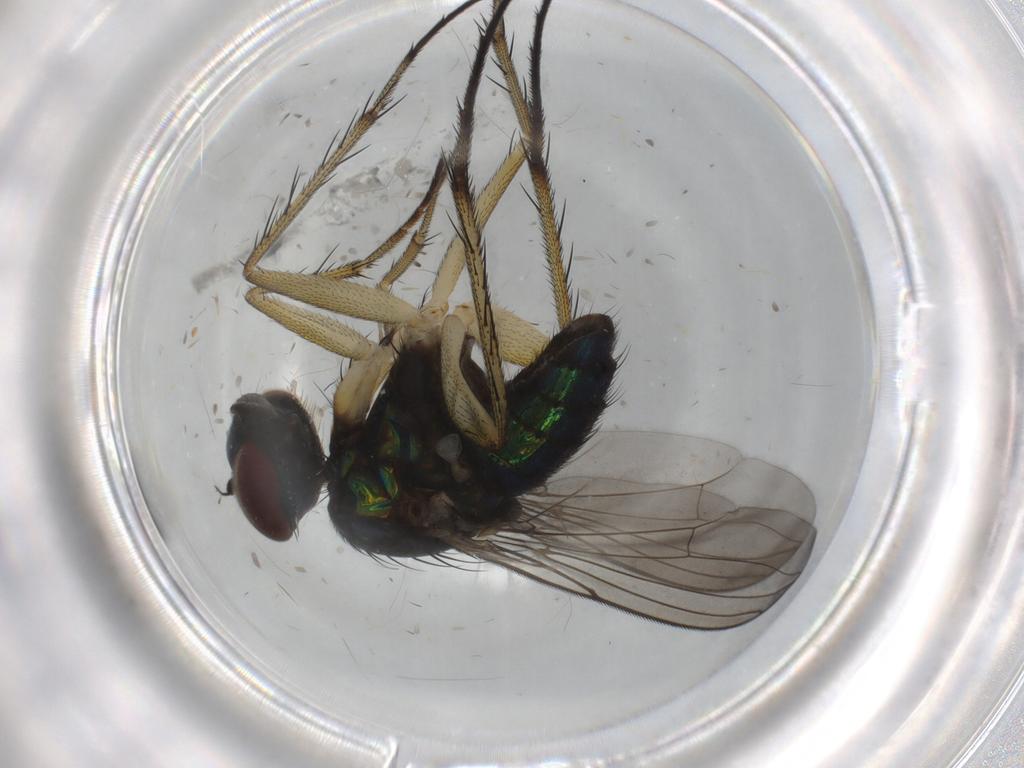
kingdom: Animalia
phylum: Arthropoda
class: Insecta
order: Diptera
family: Dolichopodidae
